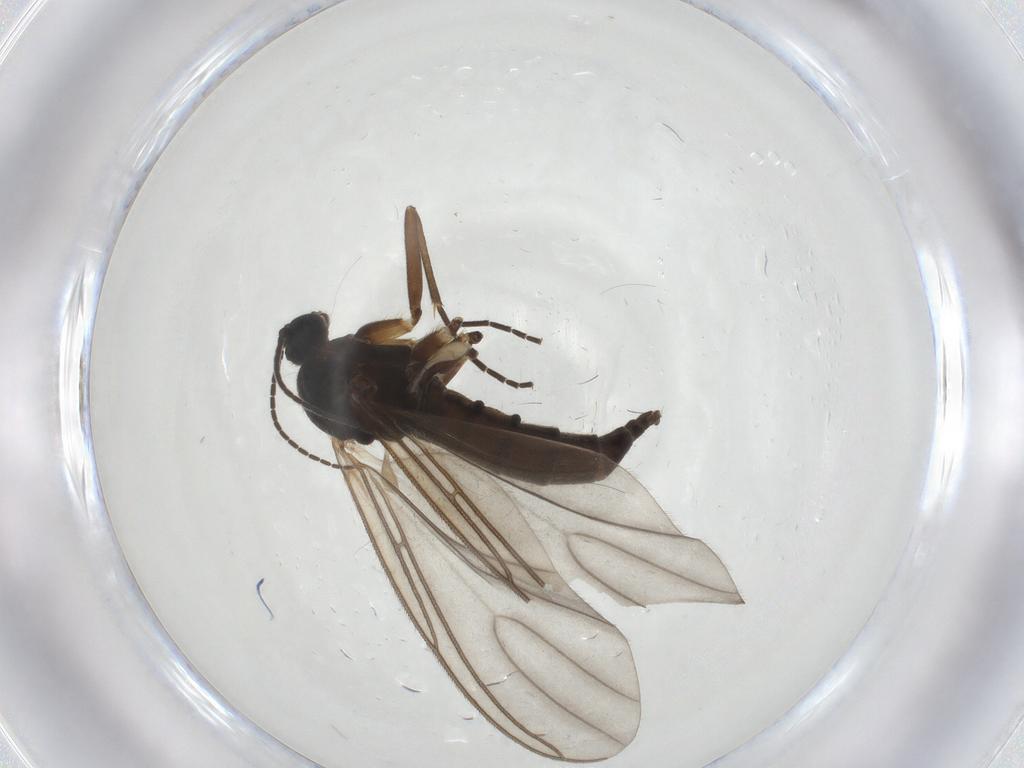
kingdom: Animalia
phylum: Arthropoda
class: Insecta
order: Diptera
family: Sciaridae
